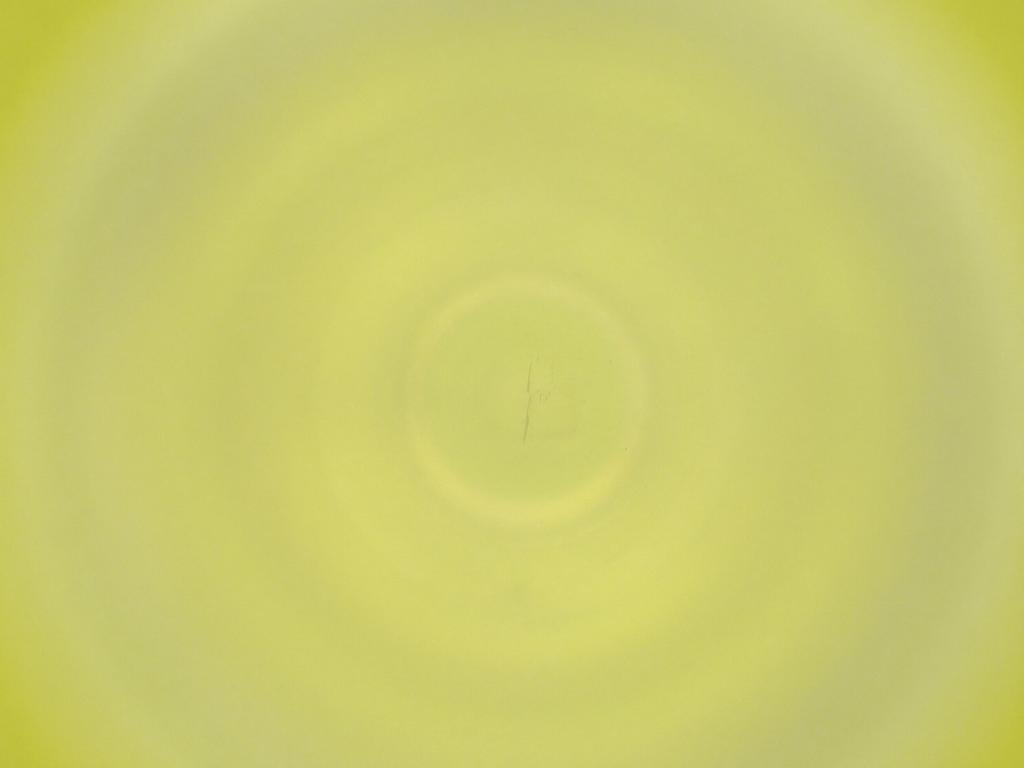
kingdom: Animalia
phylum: Arthropoda
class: Insecta
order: Diptera
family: Cecidomyiidae
